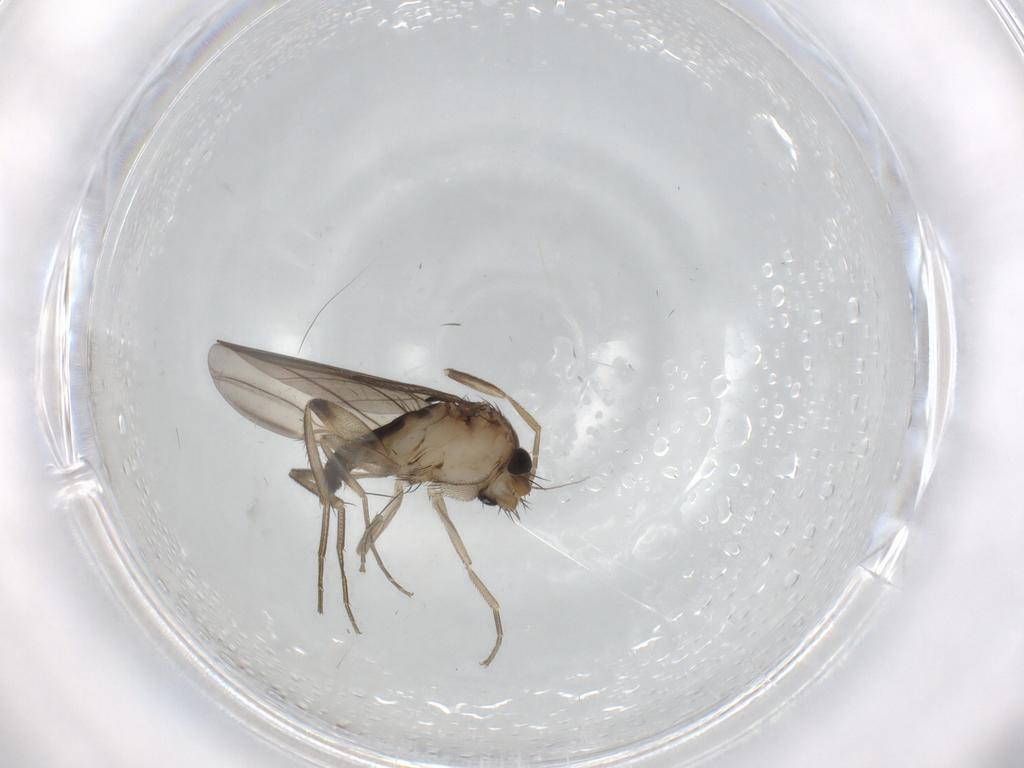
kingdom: Animalia
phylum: Arthropoda
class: Insecta
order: Diptera
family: Phoridae
